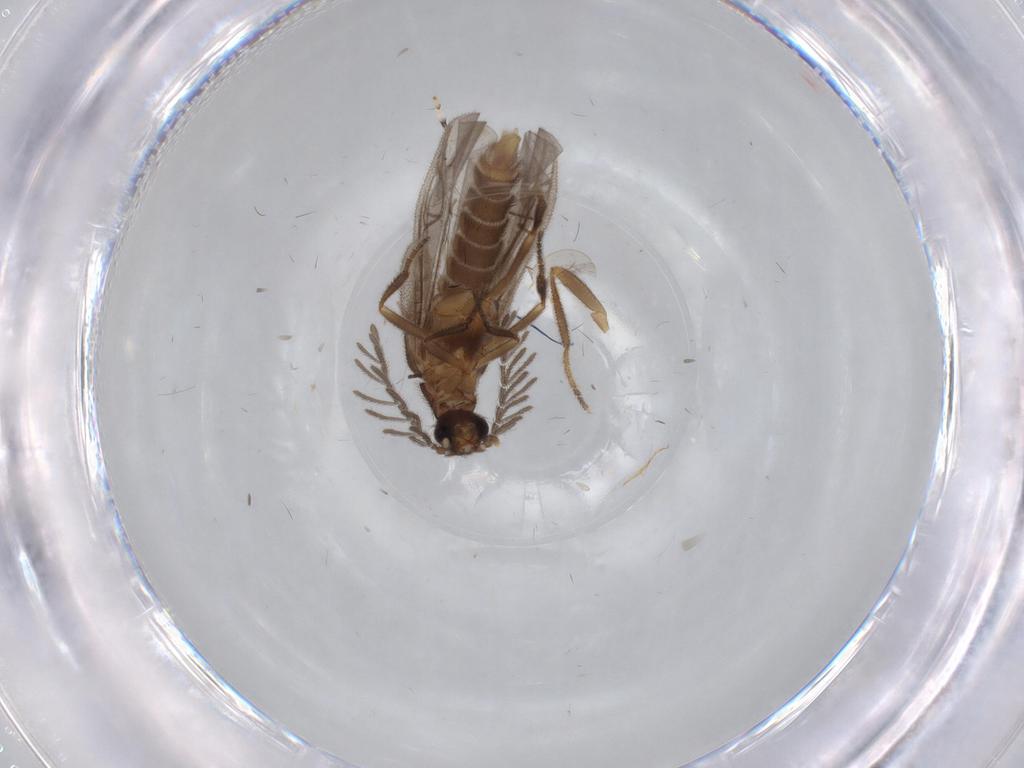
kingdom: Animalia
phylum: Arthropoda
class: Insecta
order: Coleoptera
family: Chrysomelidae
